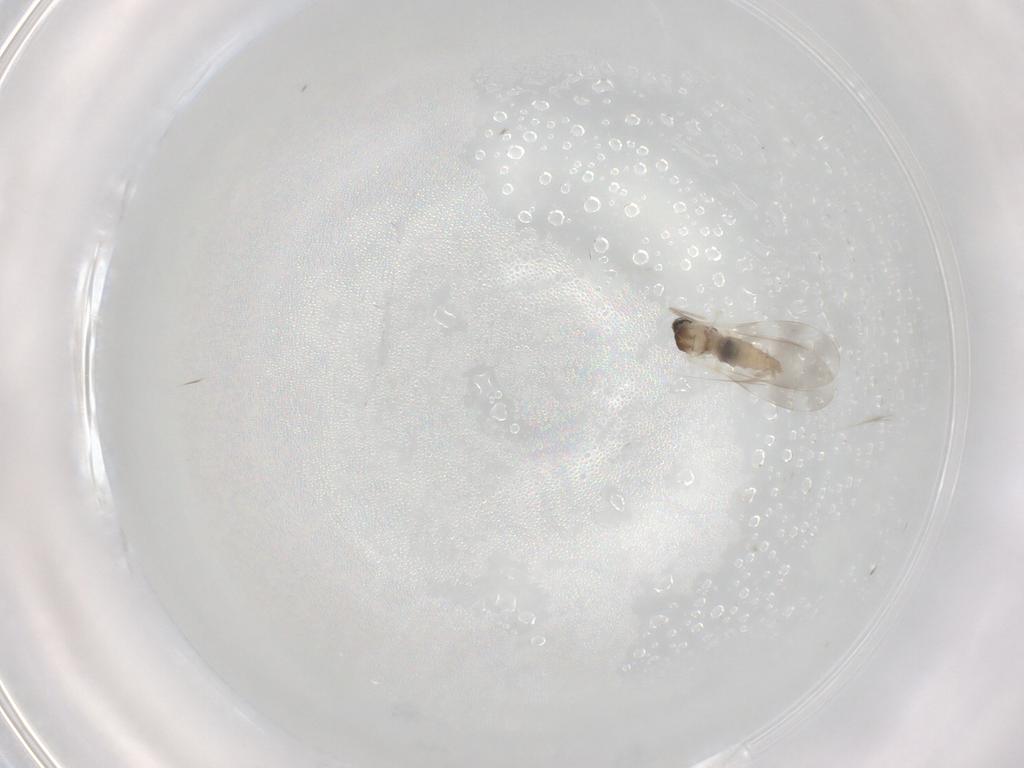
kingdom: Animalia
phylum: Arthropoda
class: Insecta
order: Diptera
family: Cecidomyiidae
